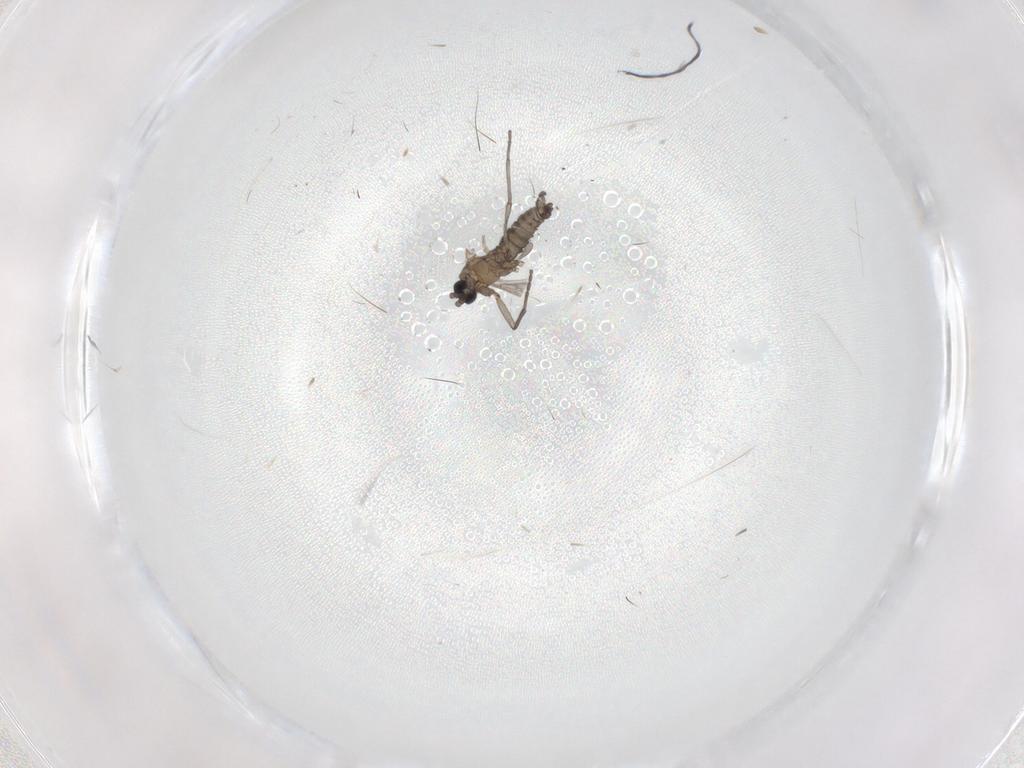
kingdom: Animalia
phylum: Arthropoda
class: Insecta
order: Diptera
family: Sciaridae
